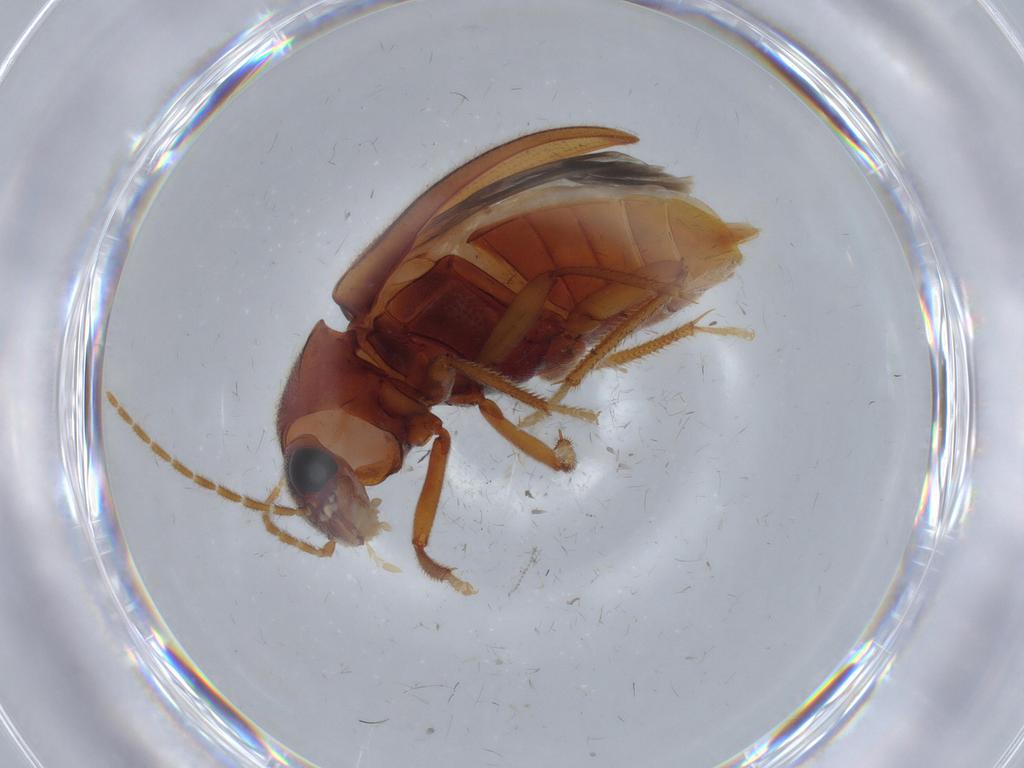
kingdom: Animalia
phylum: Arthropoda
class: Insecta
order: Coleoptera
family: Ptilodactylidae
